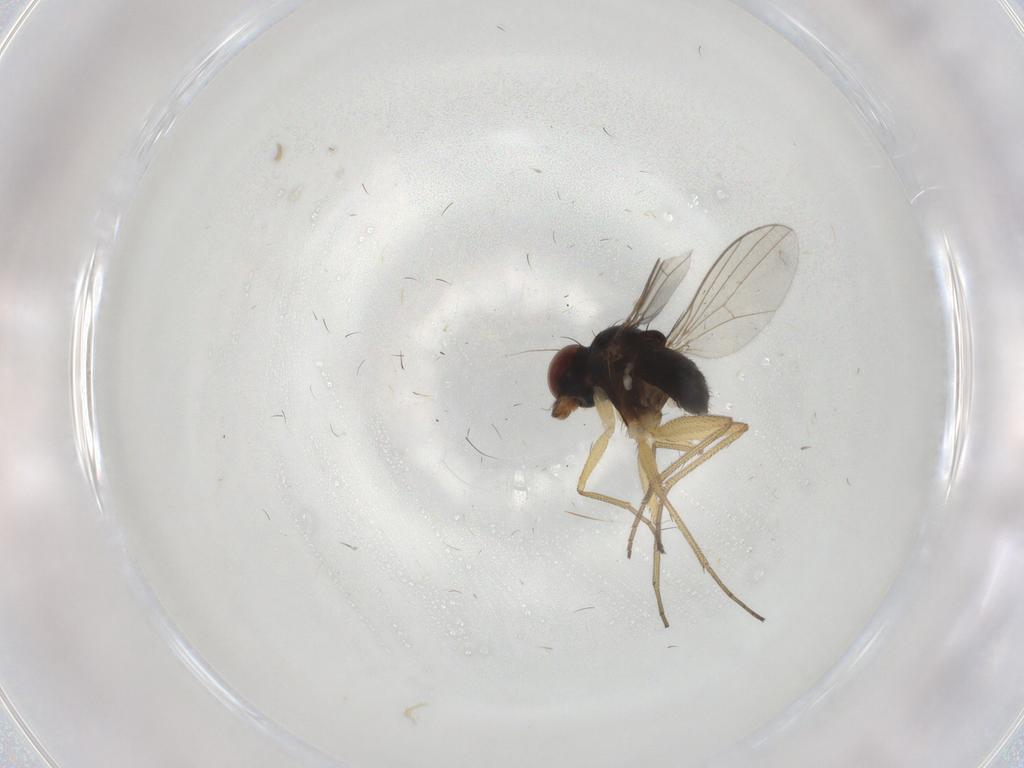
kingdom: Animalia
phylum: Arthropoda
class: Insecta
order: Diptera
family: Dolichopodidae
